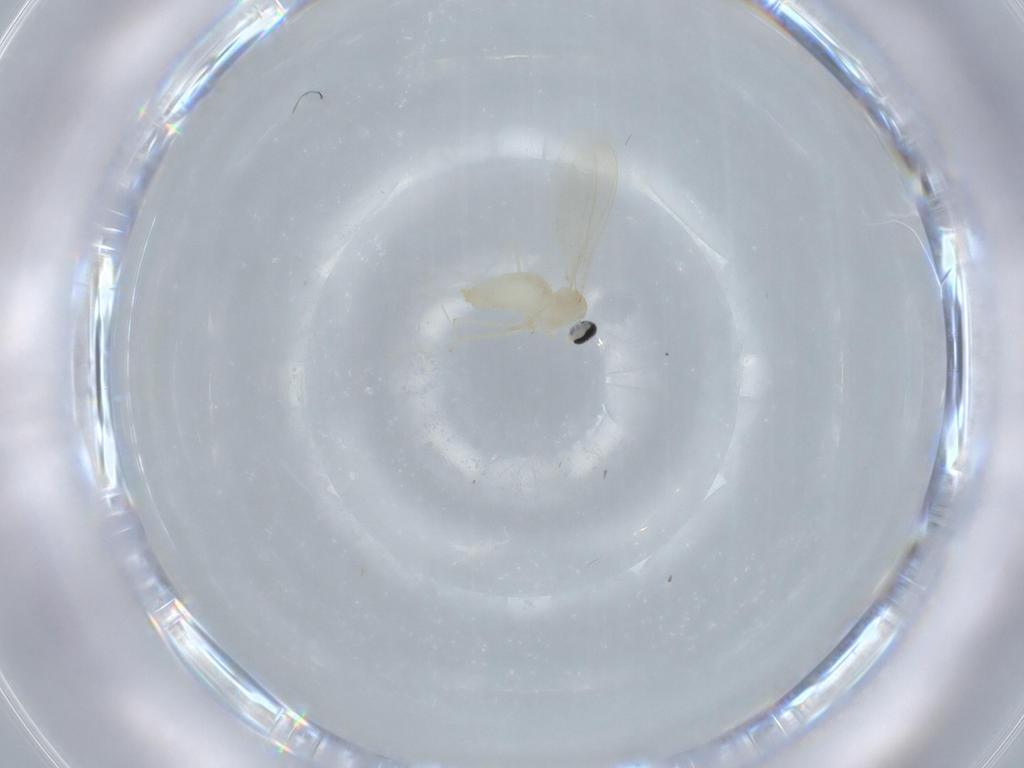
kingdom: Animalia
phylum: Arthropoda
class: Insecta
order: Diptera
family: Cecidomyiidae
